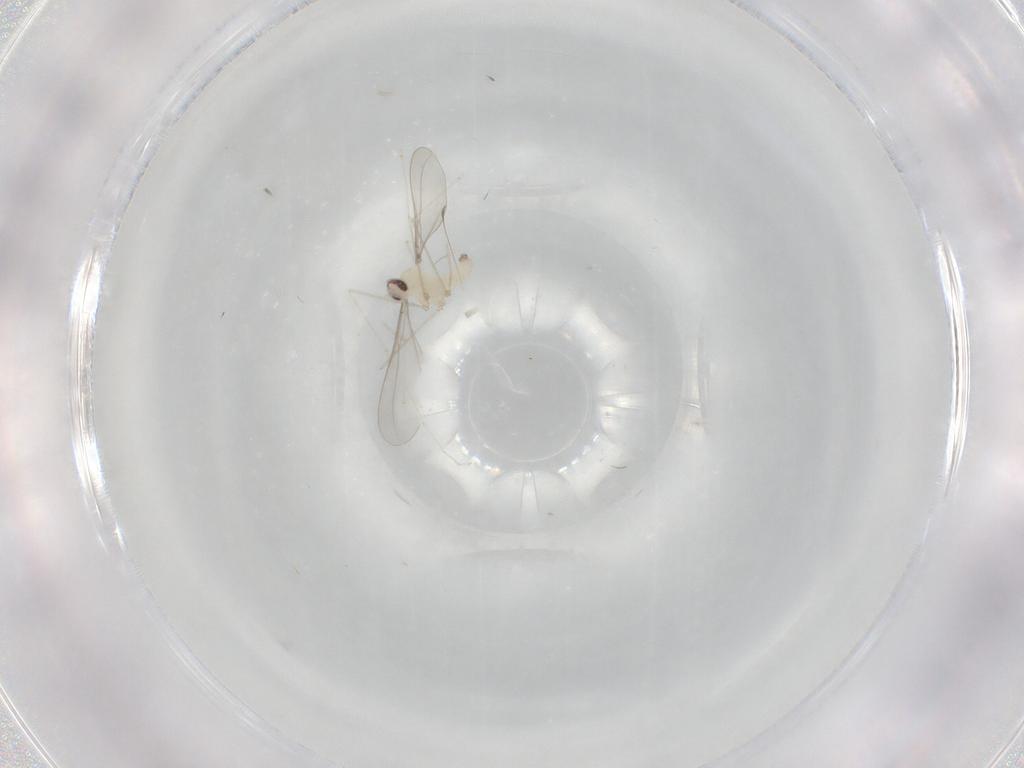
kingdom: Animalia
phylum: Arthropoda
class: Insecta
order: Diptera
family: Cecidomyiidae
